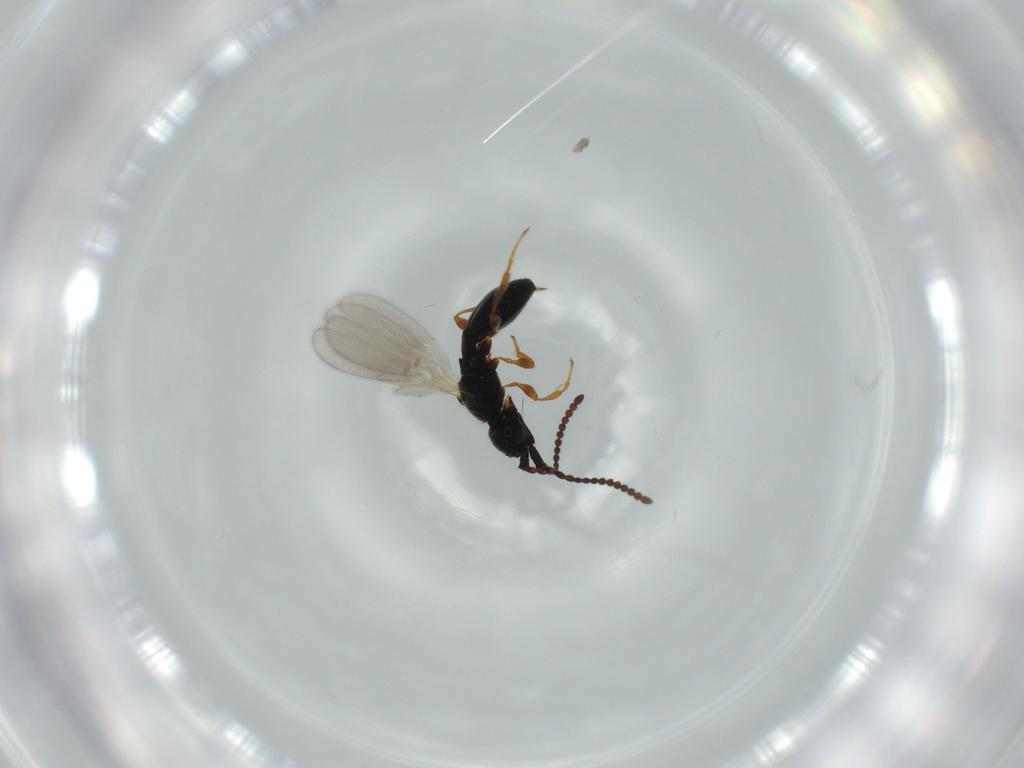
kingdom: Animalia
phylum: Arthropoda
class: Insecta
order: Hymenoptera
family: Diapriidae
